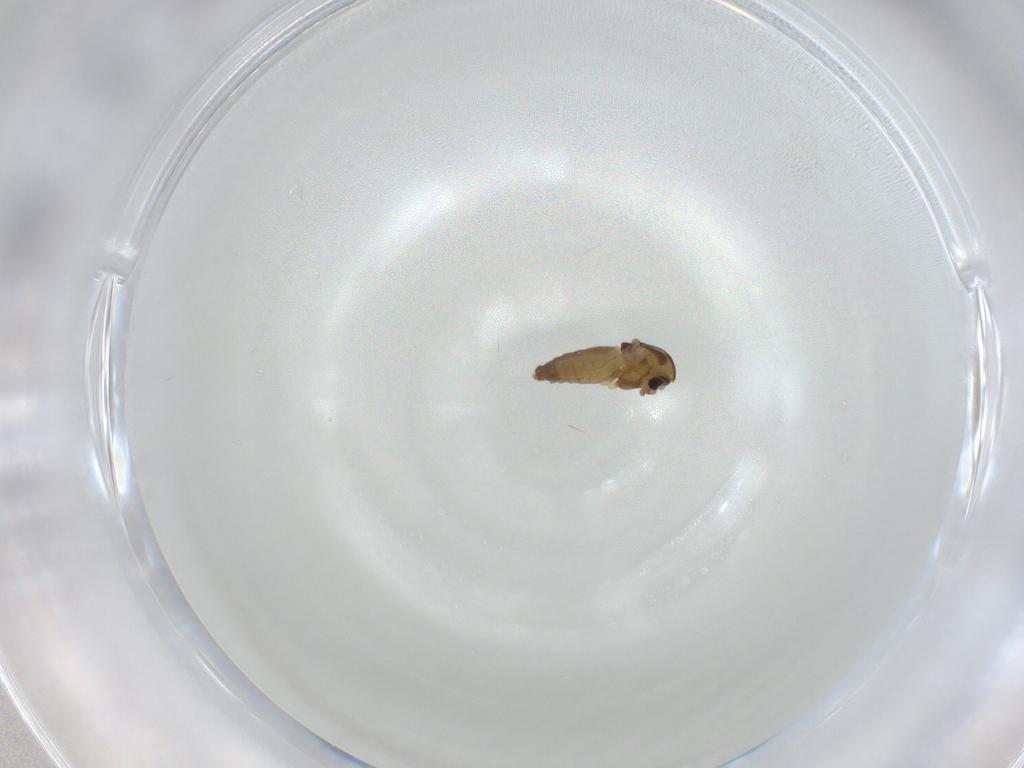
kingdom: Animalia
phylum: Arthropoda
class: Insecta
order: Diptera
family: Chironomidae
